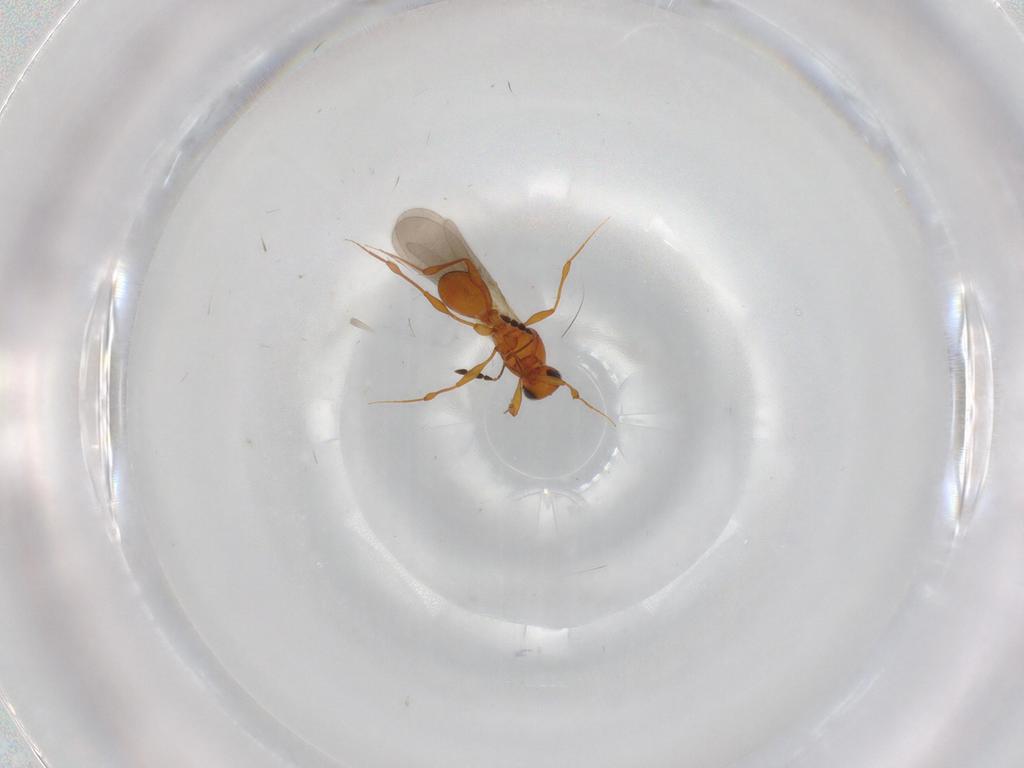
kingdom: Animalia
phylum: Arthropoda
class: Insecta
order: Hymenoptera
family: Platygastridae
